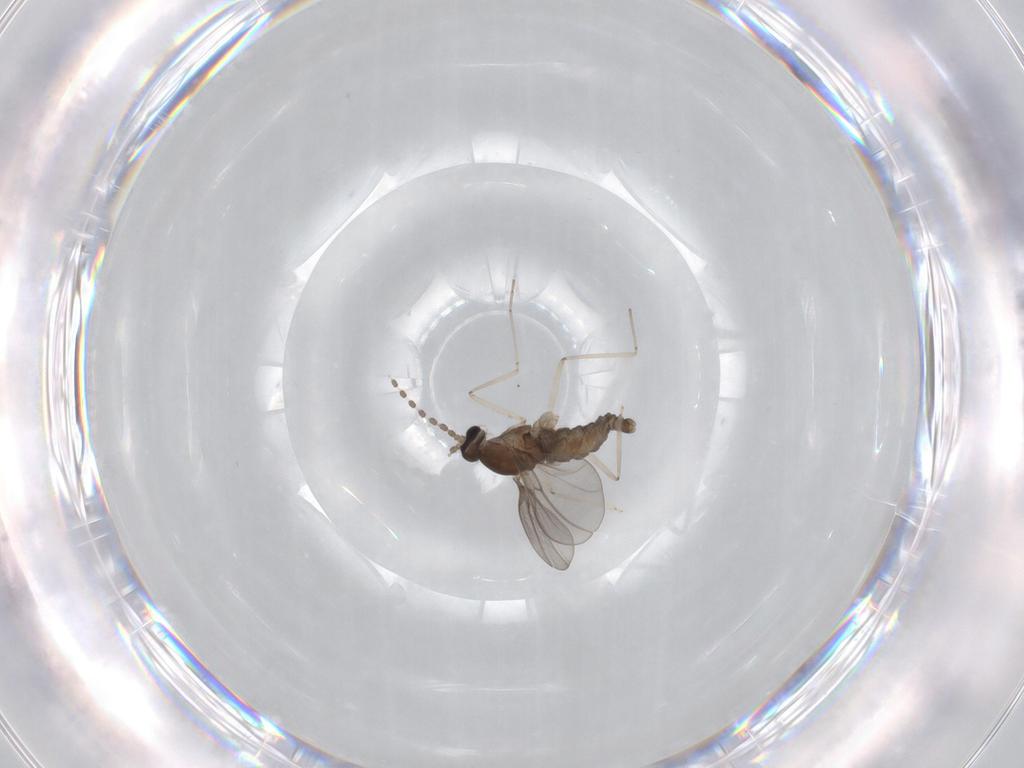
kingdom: Animalia
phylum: Arthropoda
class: Insecta
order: Diptera
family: Cecidomyiidae
